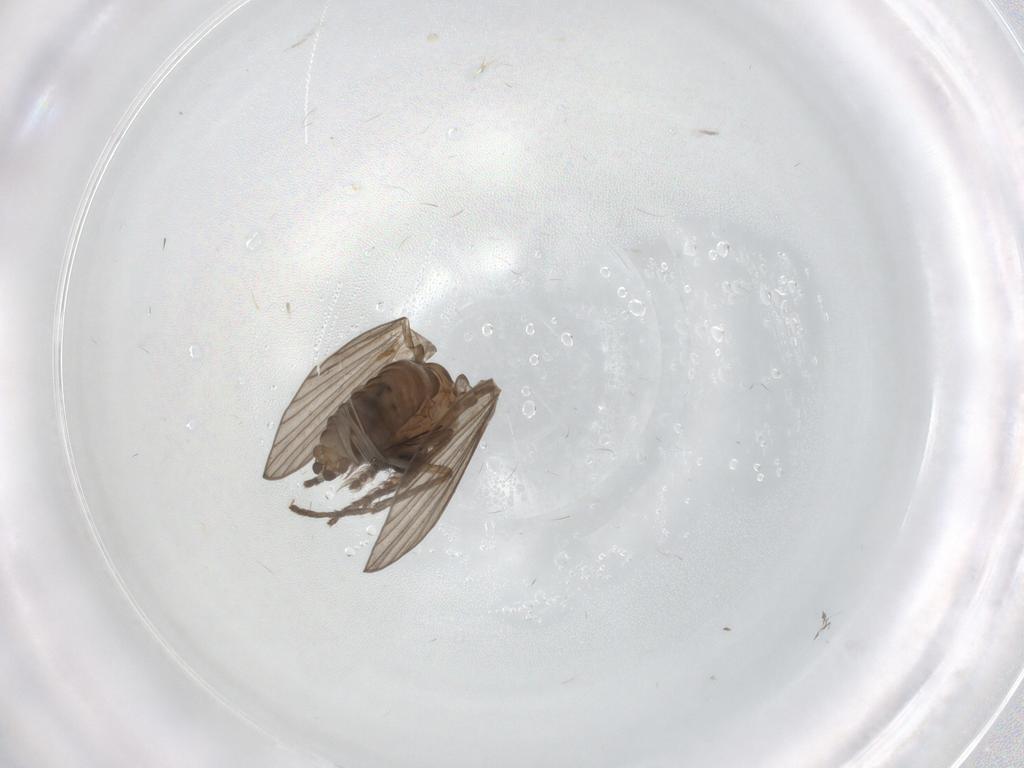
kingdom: Animalia
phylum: Arthropoda
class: Insecta
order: Diptera
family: Psychodidae
